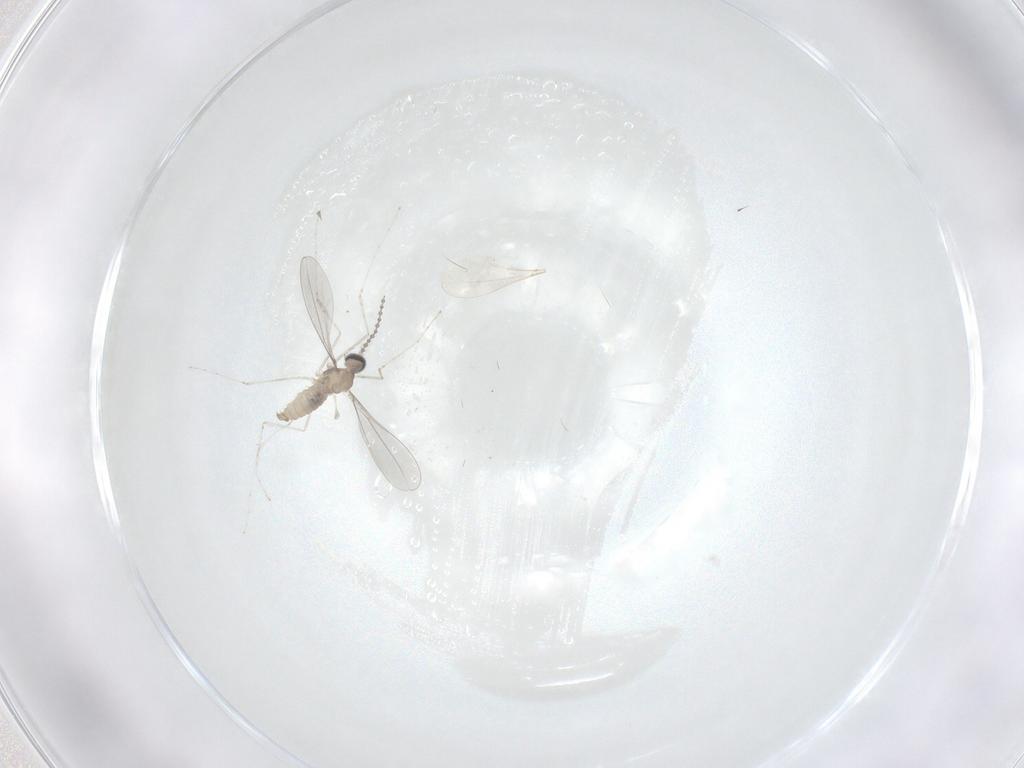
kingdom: Animalia
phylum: Arthropoda
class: Insecta
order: Diptera
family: Cecidomyiidae
